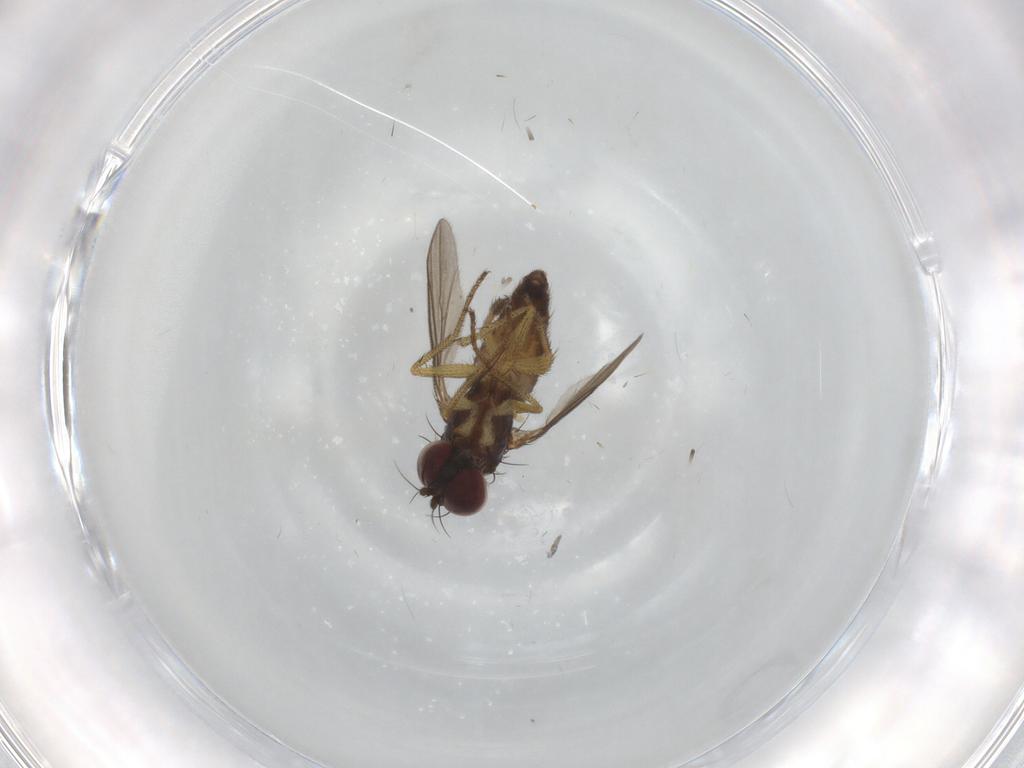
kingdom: Animalia
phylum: Arthropoda
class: Insecta
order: Diptera
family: Dolichopodidae
